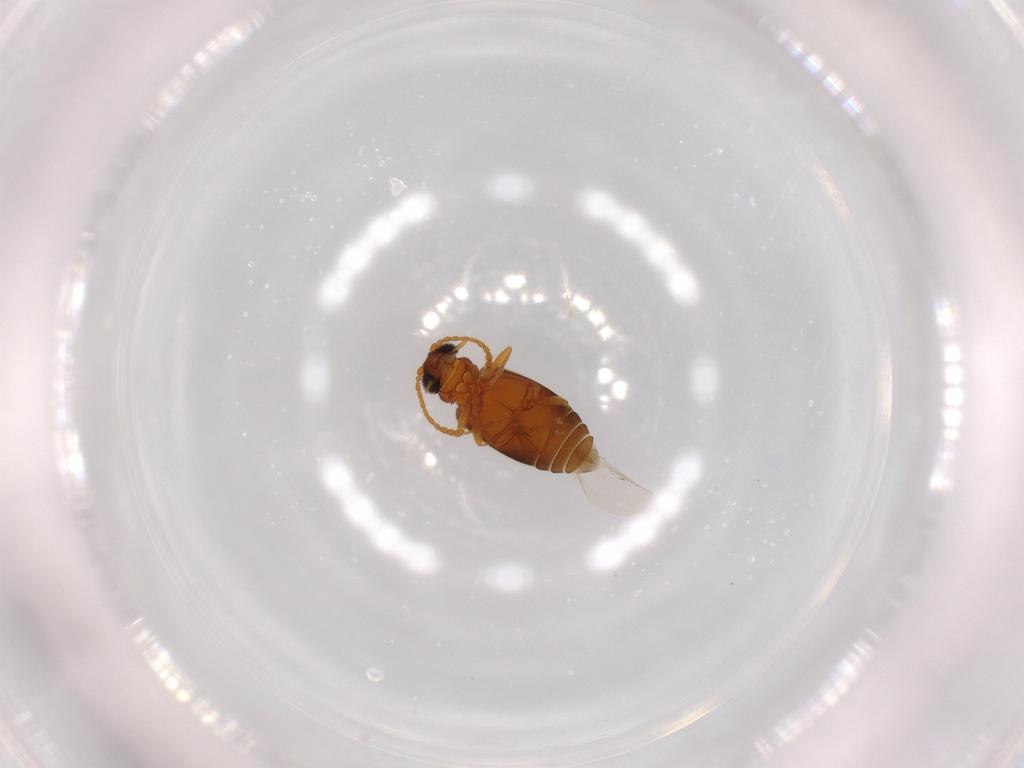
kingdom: Animalia
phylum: Arthropoda
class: Insecta
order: Coleoptera
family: Aderidae
